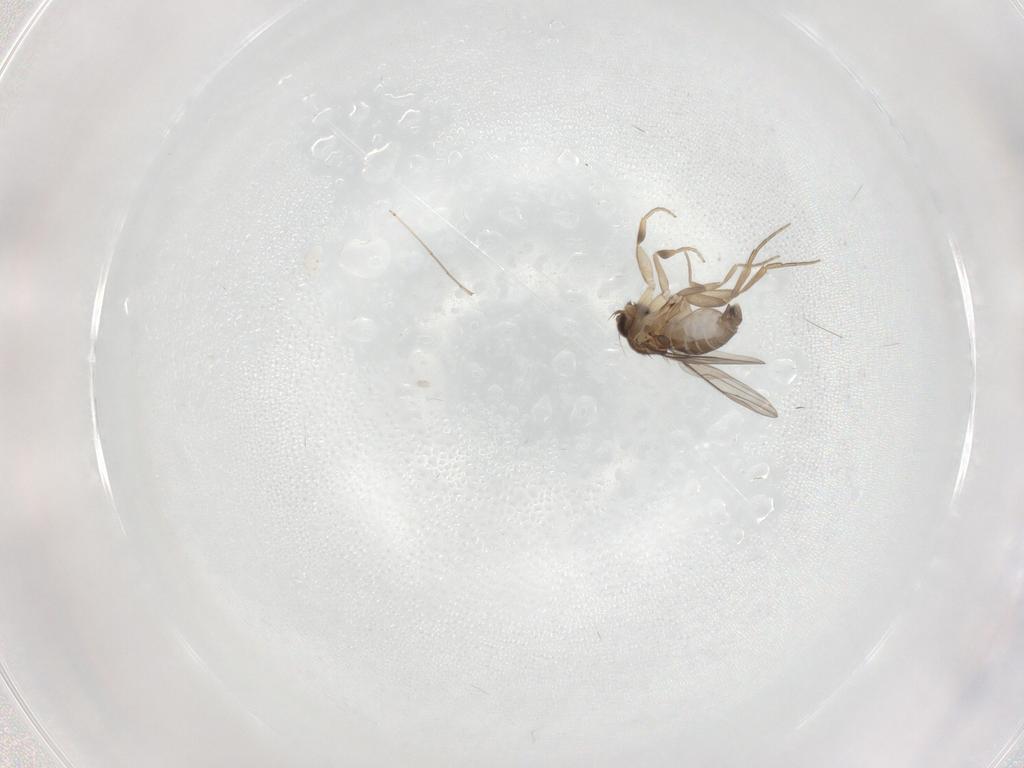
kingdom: Animalia
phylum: Arthropoda
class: Insecta
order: Diptera
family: Phoridae
